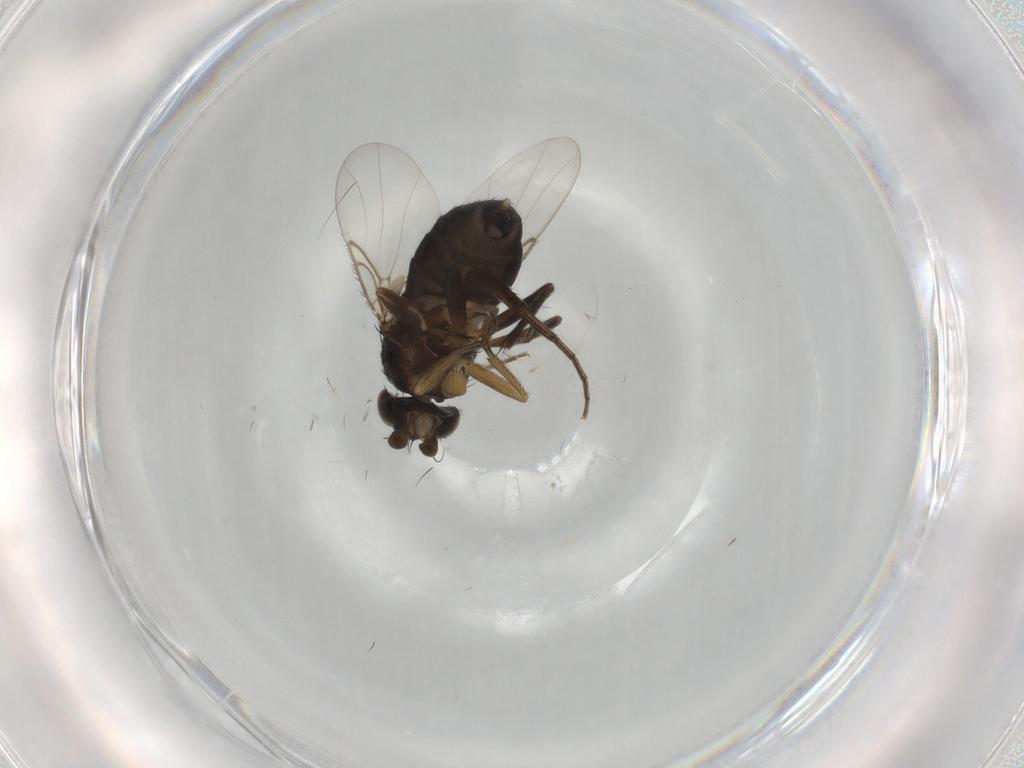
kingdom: Animalia
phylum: Arthropoda
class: Insecta
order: Diptera
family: Phoridae
